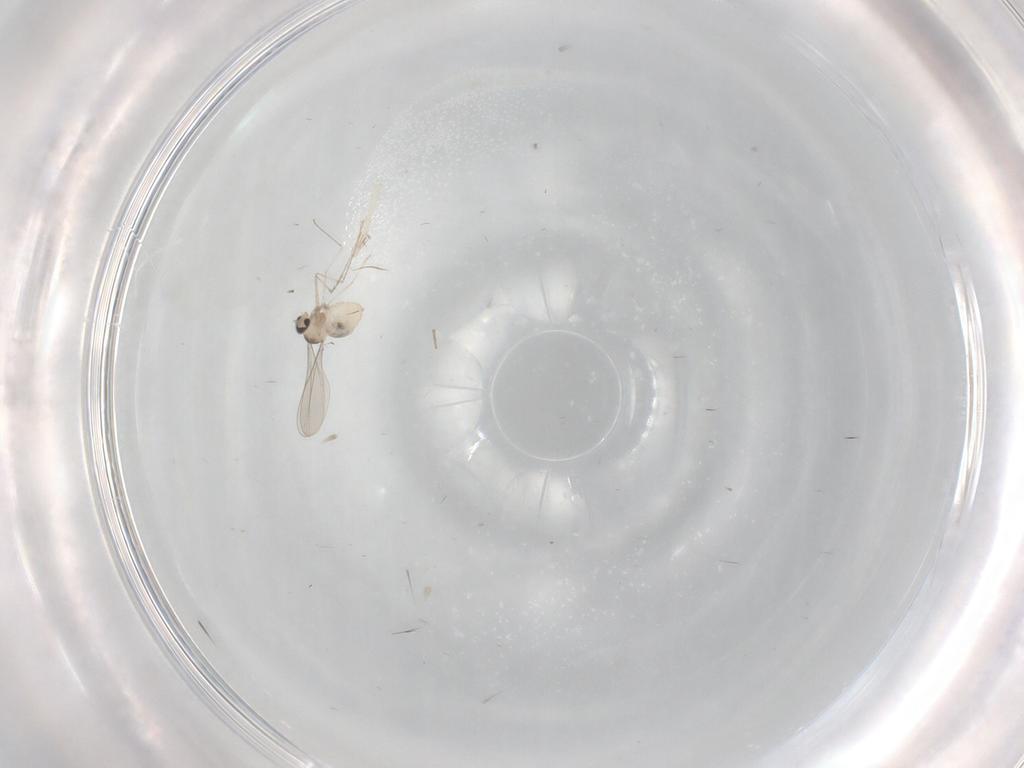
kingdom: Animalia
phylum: Arthropoda
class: Insecta
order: Diptera
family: Cecidomyiidae
